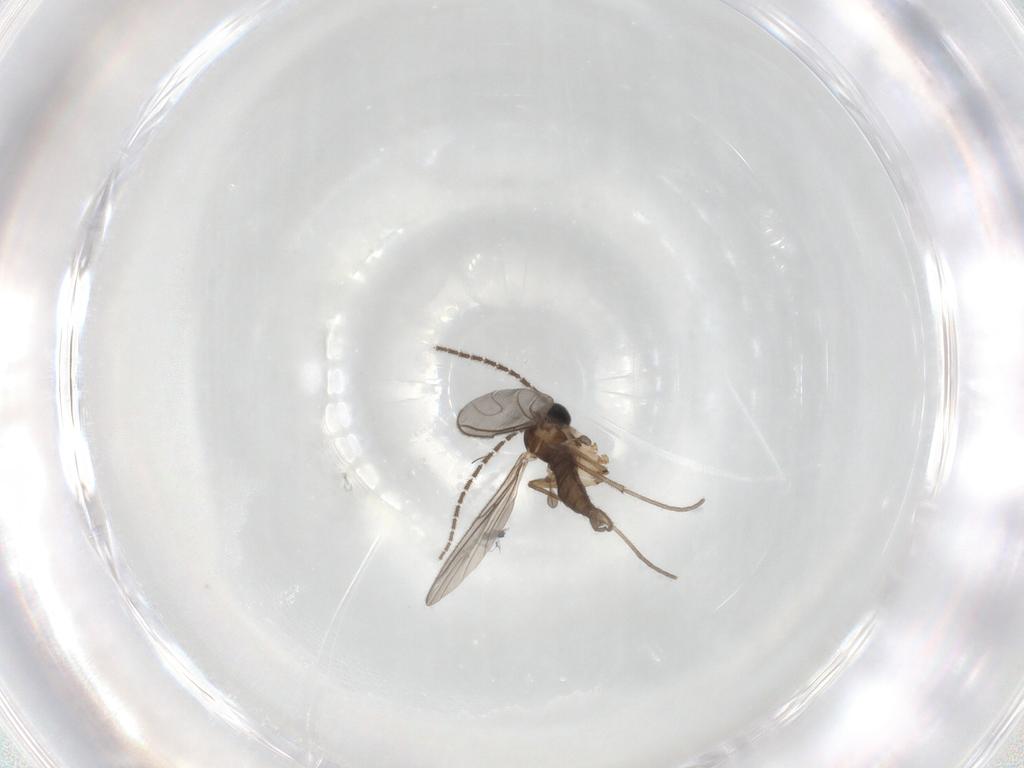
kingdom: Animalia
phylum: Arthropoda
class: Insecta
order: Diptera
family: Sciaridae
